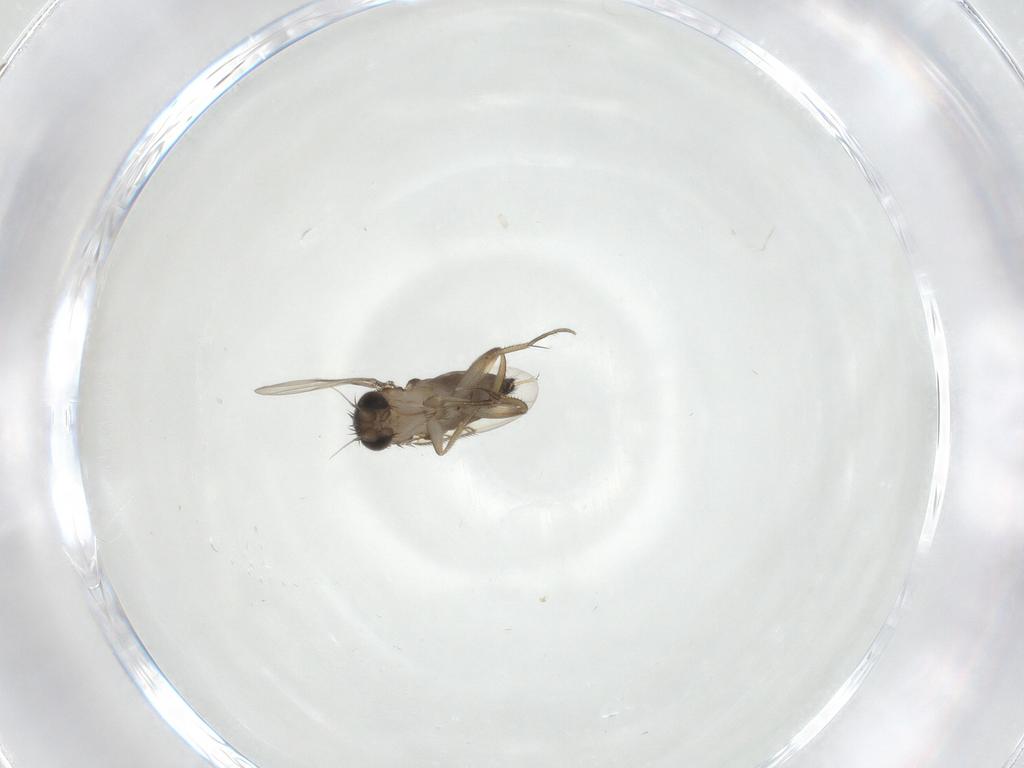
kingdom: Animalia
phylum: Arthropoda
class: Insecta
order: Diptera
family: Phoridae
